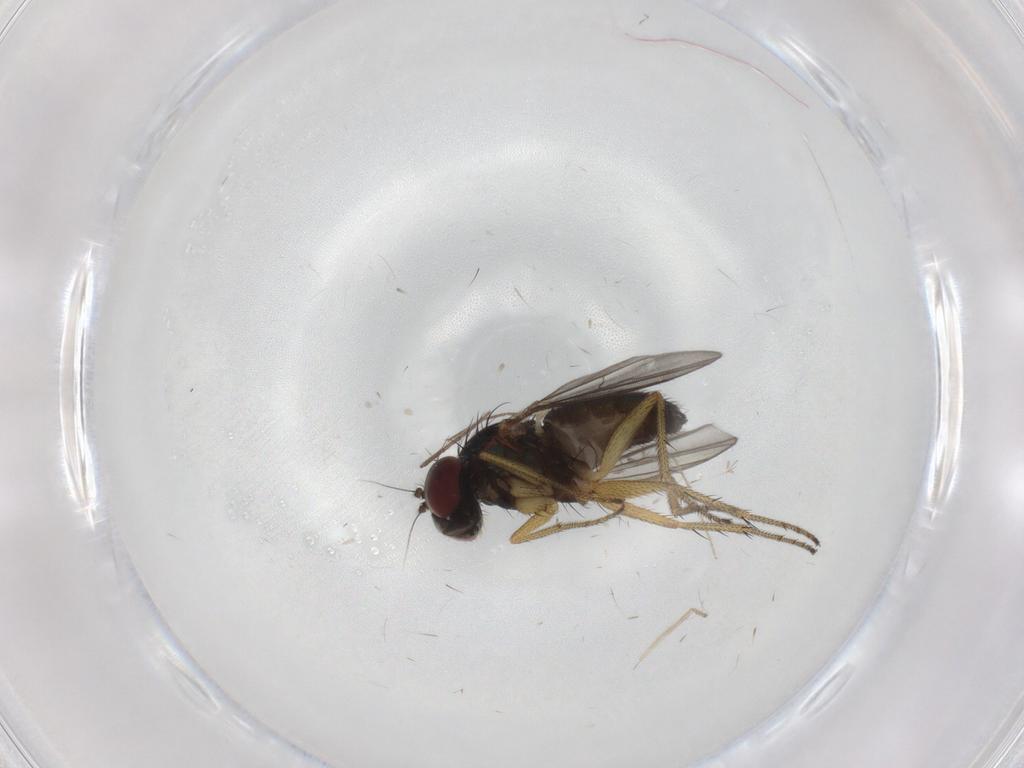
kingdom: Animalia
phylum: Arthropoda
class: Insecta
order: Diptera
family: Chironomidae
